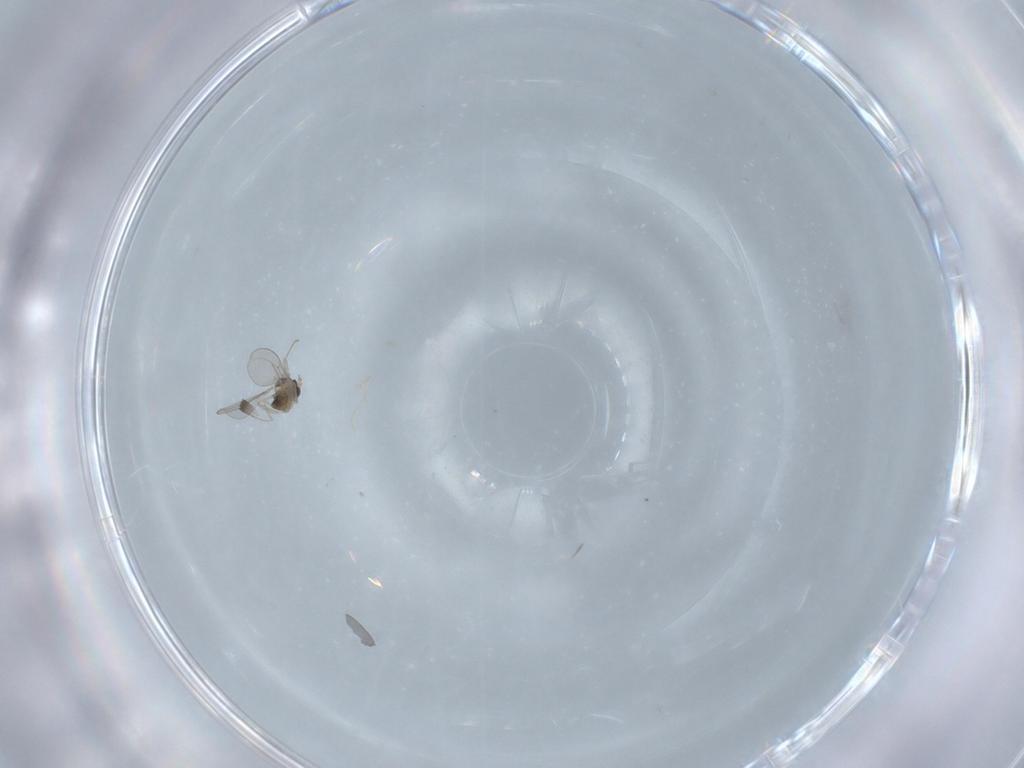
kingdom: Animalia
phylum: Arthropoda
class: Insecta
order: Diptera
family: Cecidomyiidae
